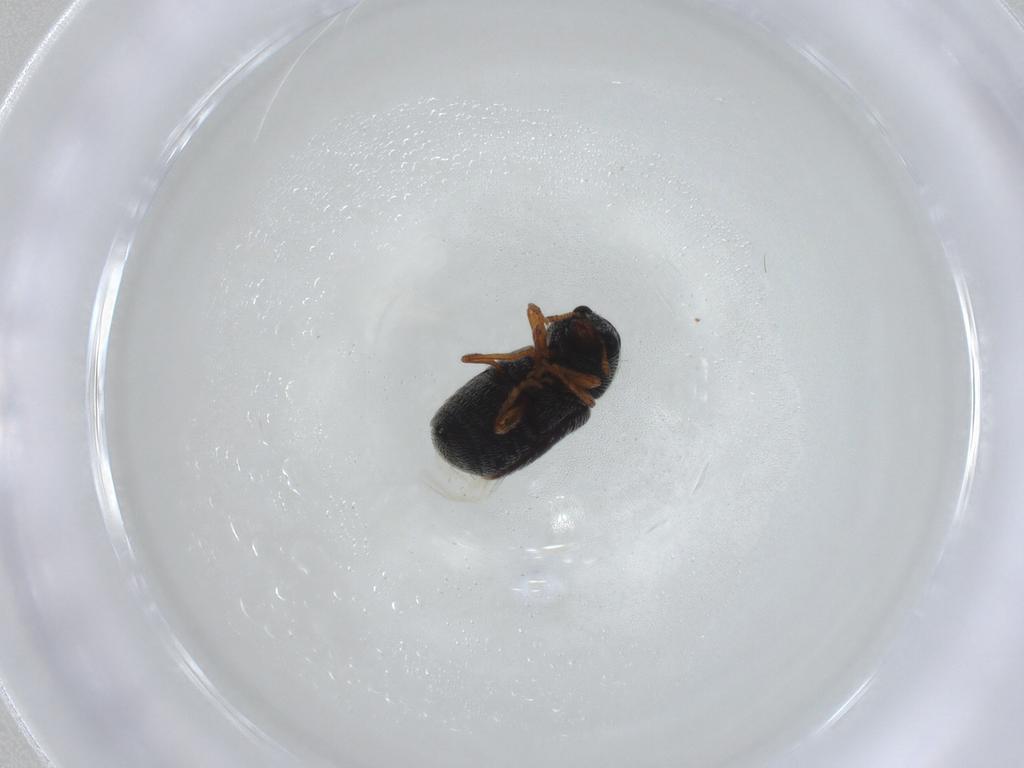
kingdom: Animalia
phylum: Arthropoda
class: Insecta
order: Coleoptera
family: Anthribidae
